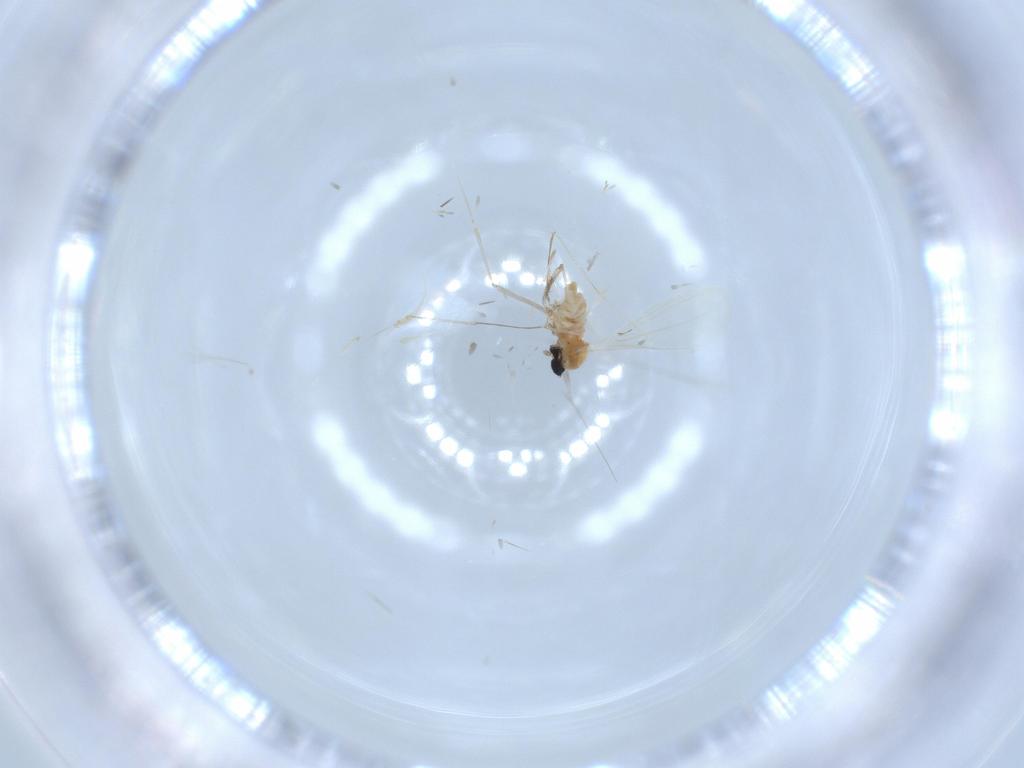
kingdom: Animalia
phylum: Arthropoda
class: Insecta
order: Diptera
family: Cecidomyiidae
